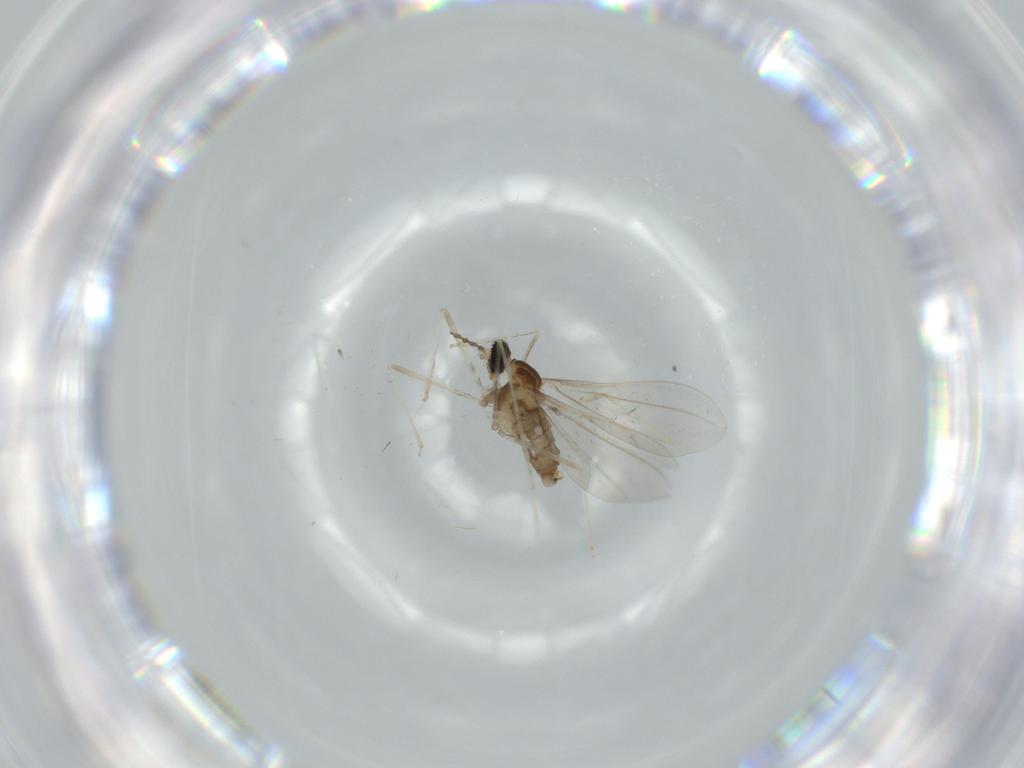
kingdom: Animalia
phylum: Arthropoda
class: Insecta
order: Diptera
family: Cecidomyiidae
